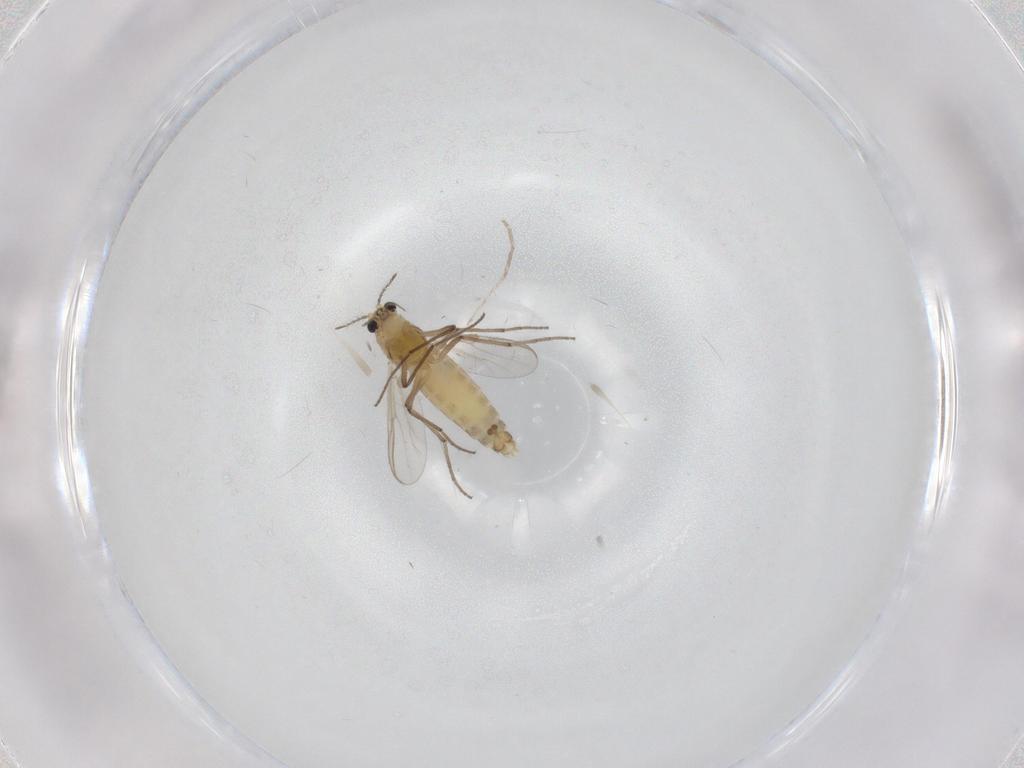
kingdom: Animalia
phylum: Arthropoda
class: Insecta
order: Diptera
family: Chironomidae
